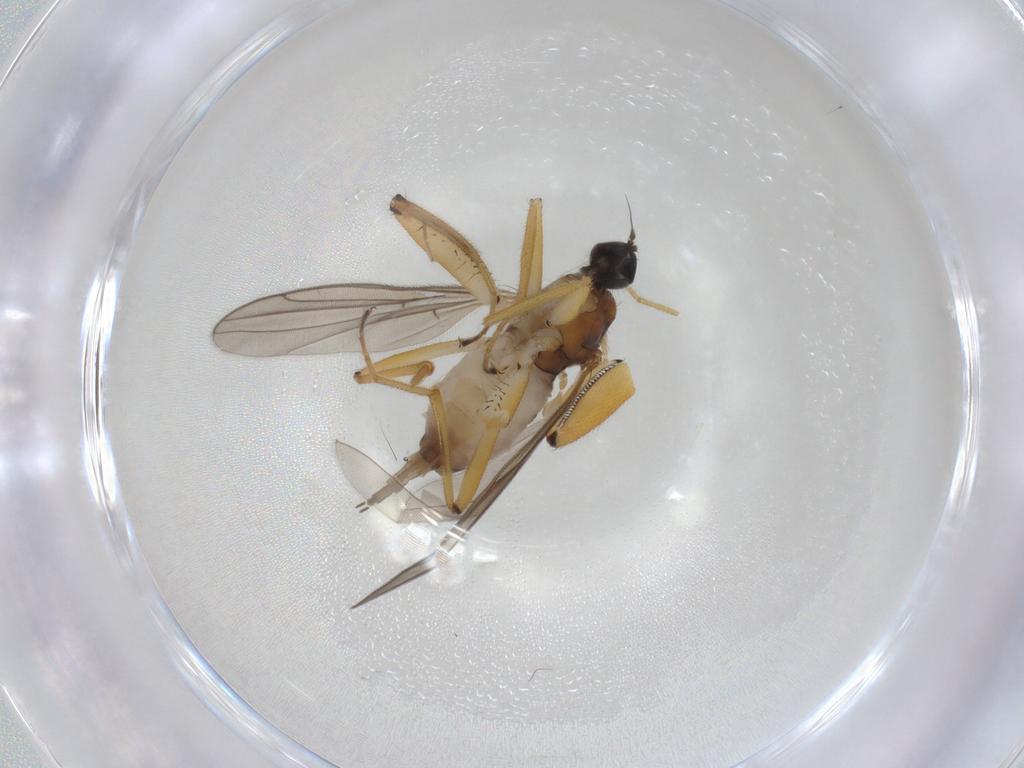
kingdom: Animalia
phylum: Arthropoda
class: Insecta
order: Diptera
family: Hybotidae
